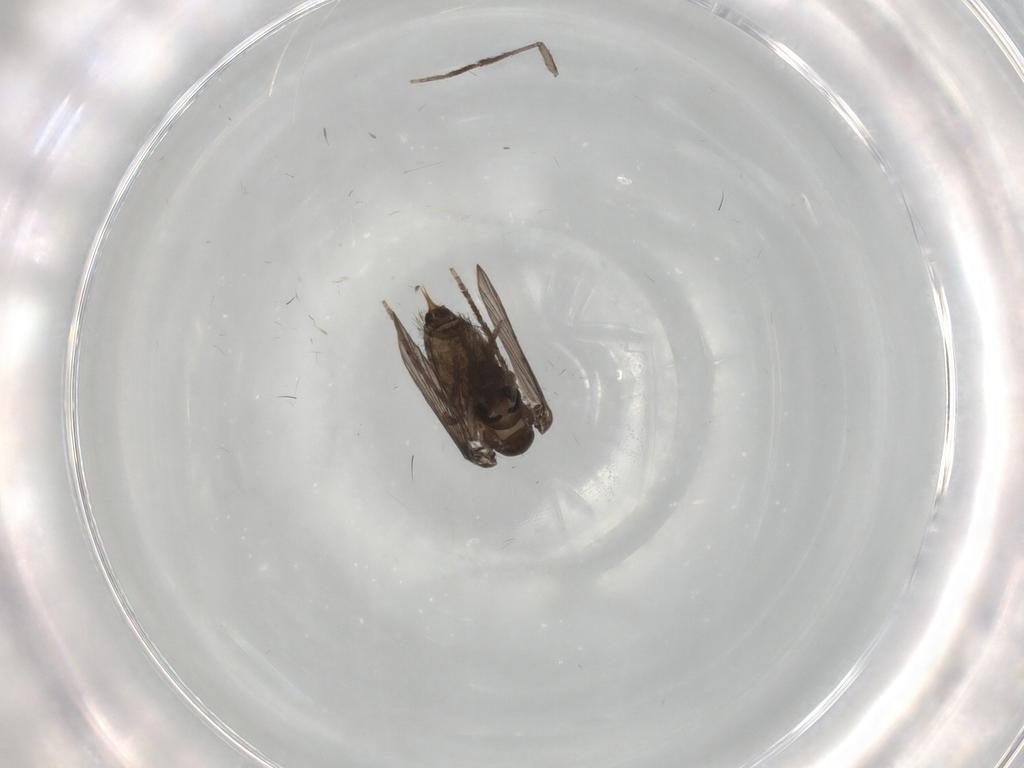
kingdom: Animalia
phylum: Arthropoda
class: Insecta
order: Diptera
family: Psychodidae
